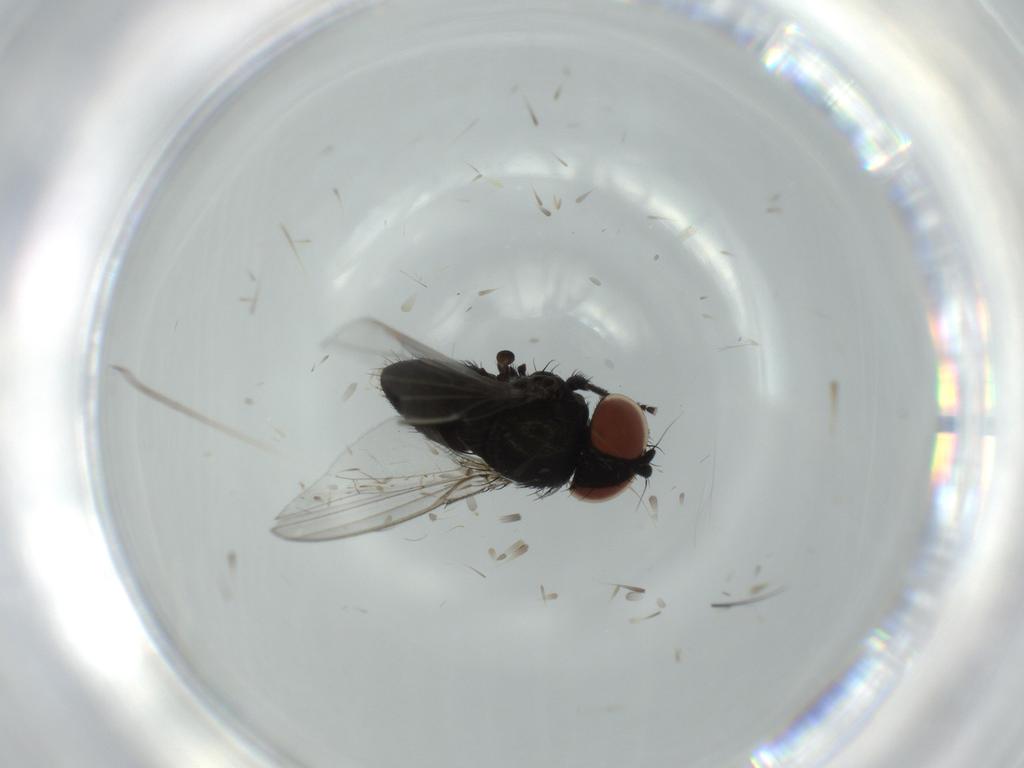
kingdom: Animalia
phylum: Arthropoda
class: Insecta
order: Diptera
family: Milichiidae
